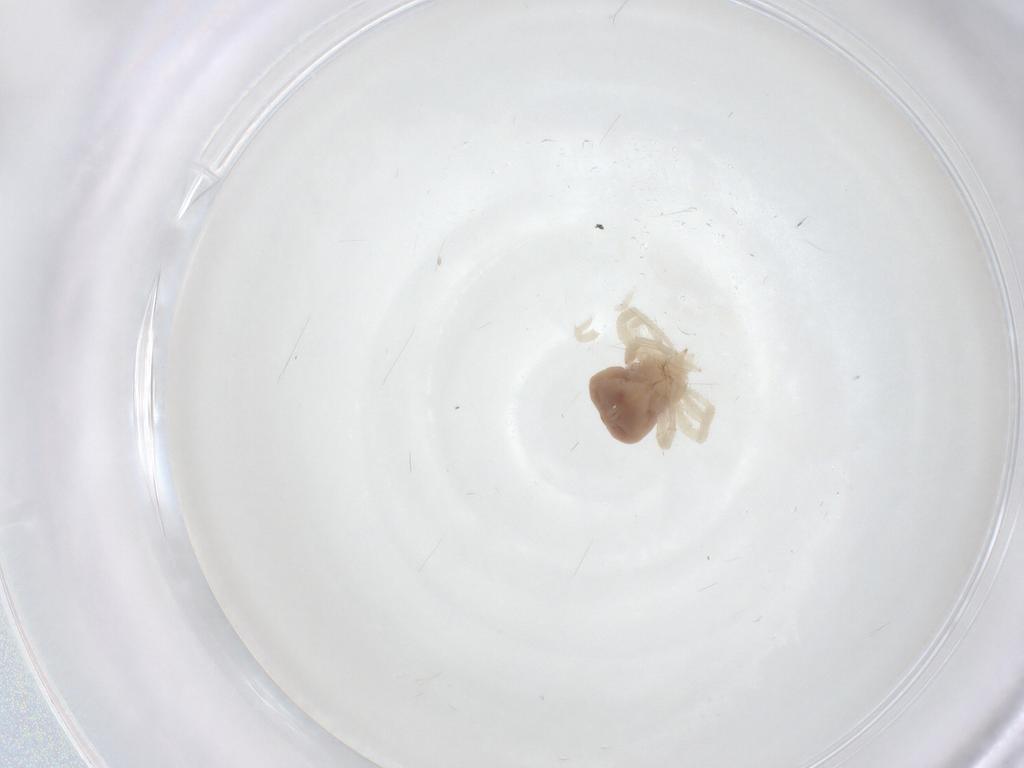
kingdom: Animalia
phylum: Arthropoda
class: Arachnida
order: Trombidiformes
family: Anystidae
